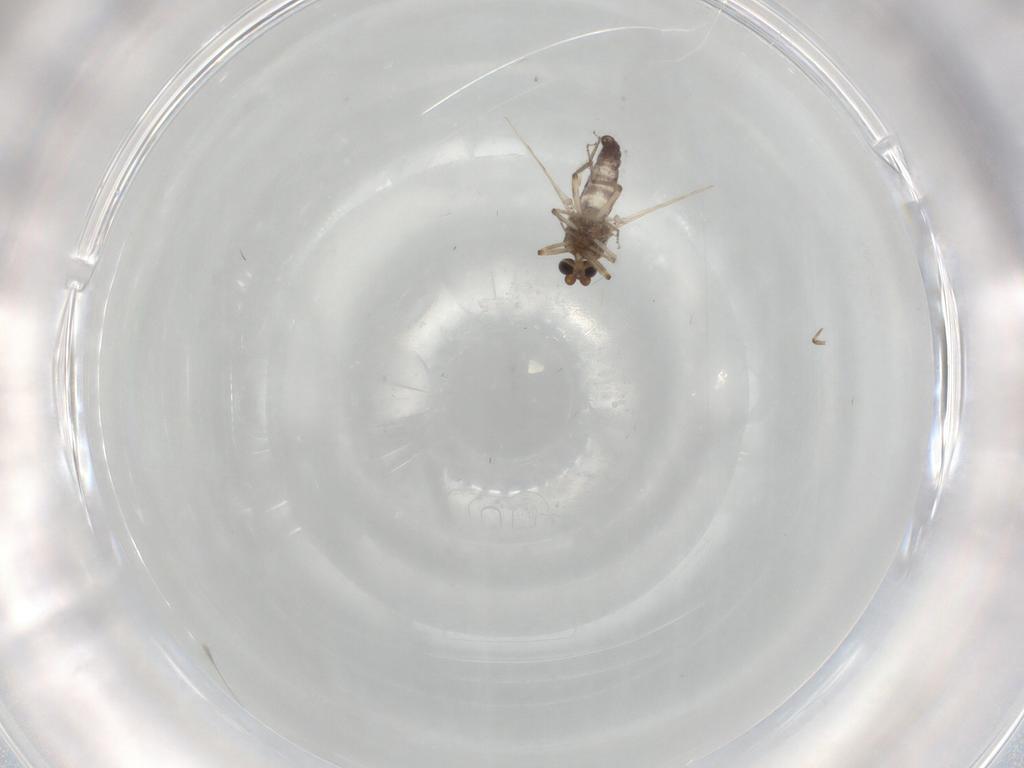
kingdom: Animalia
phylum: Arthropoda
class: Insecta
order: Diptera
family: Ceratopogonidae
